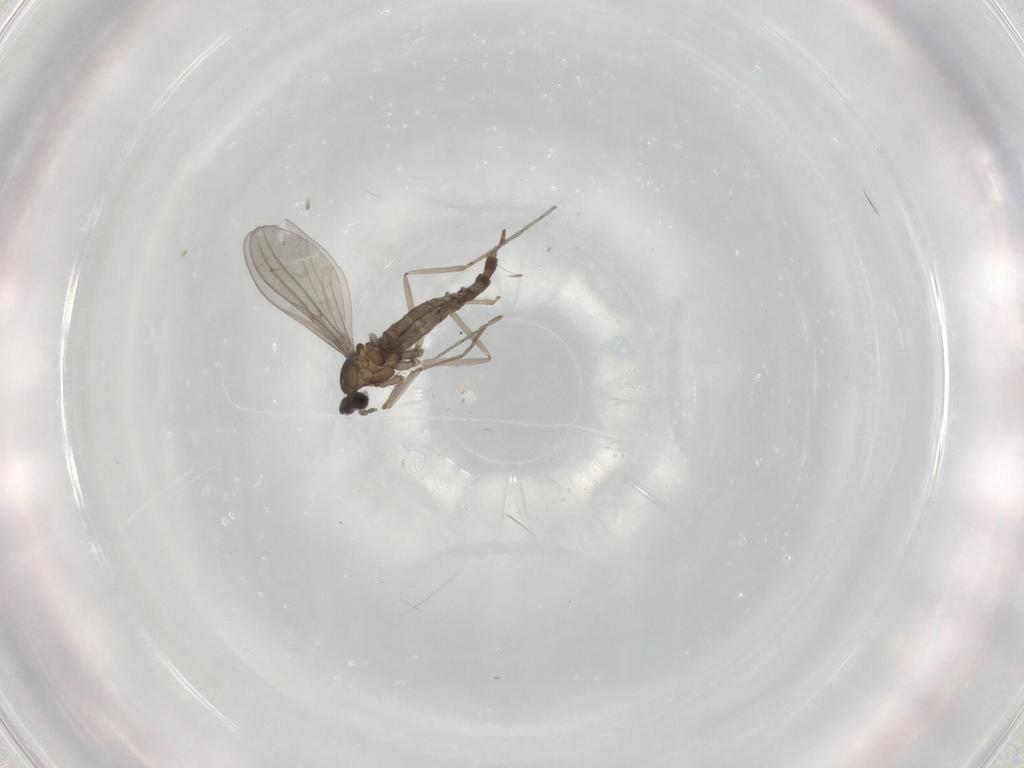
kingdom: Animalia
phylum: Arthropoda
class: Insecta
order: Diptera
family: Cecidomyiidae
